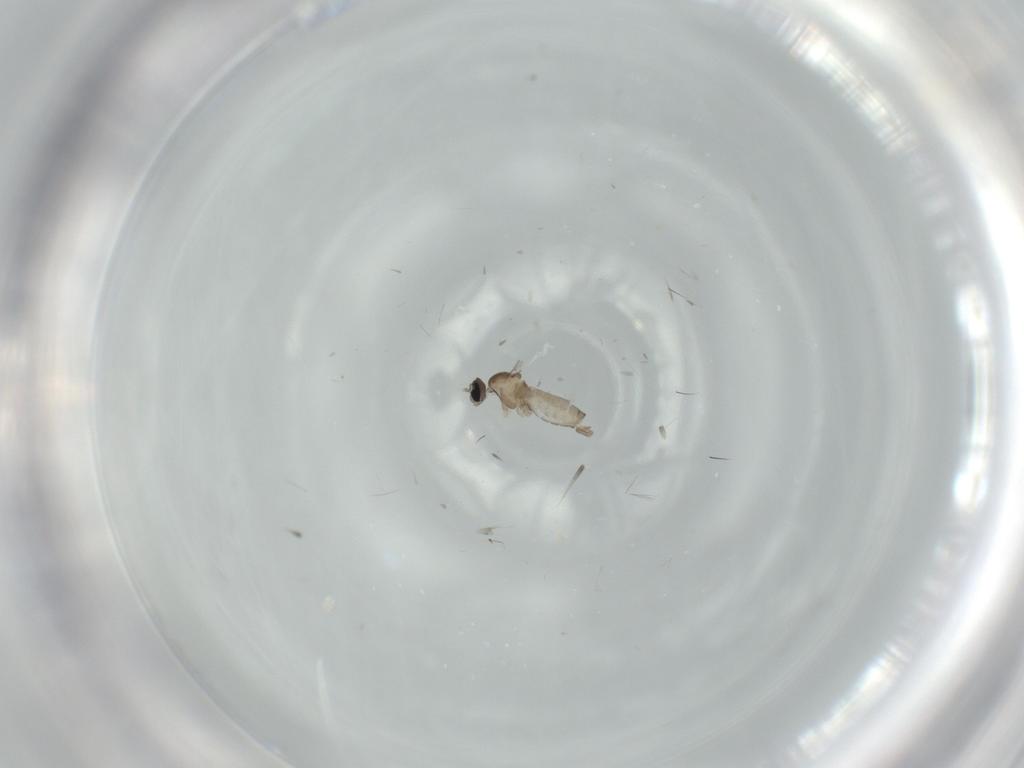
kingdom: Animalia
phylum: Arthropoda
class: Insecta
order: Diptera
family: Cecidomyiidae
